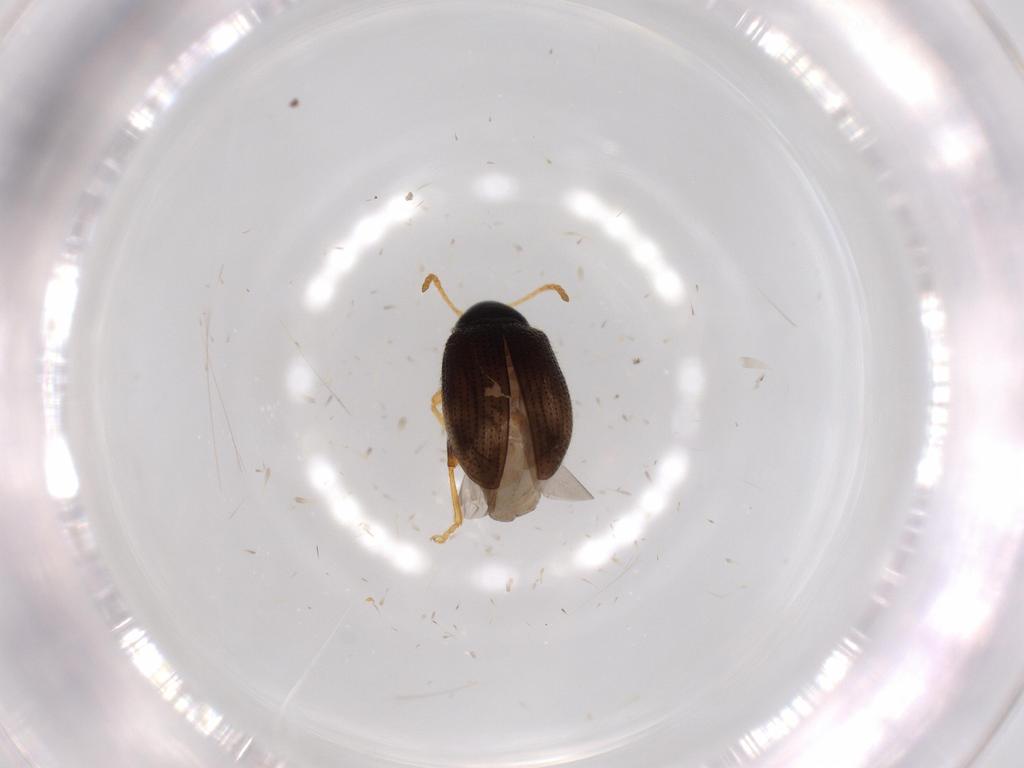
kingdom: Animalia
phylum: Arthropoda
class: Insecta
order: Coleoptera
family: Chrysomelidae
